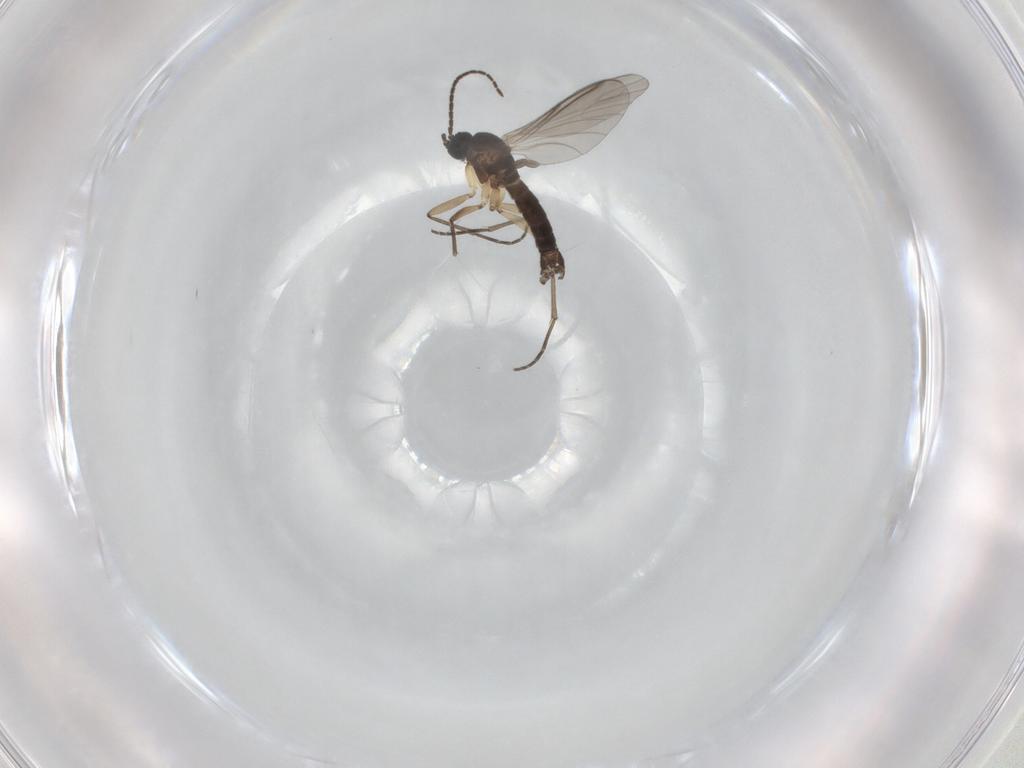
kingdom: Animalia
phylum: Arthropoda
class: Insecta
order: Diptera
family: Sciaridae
